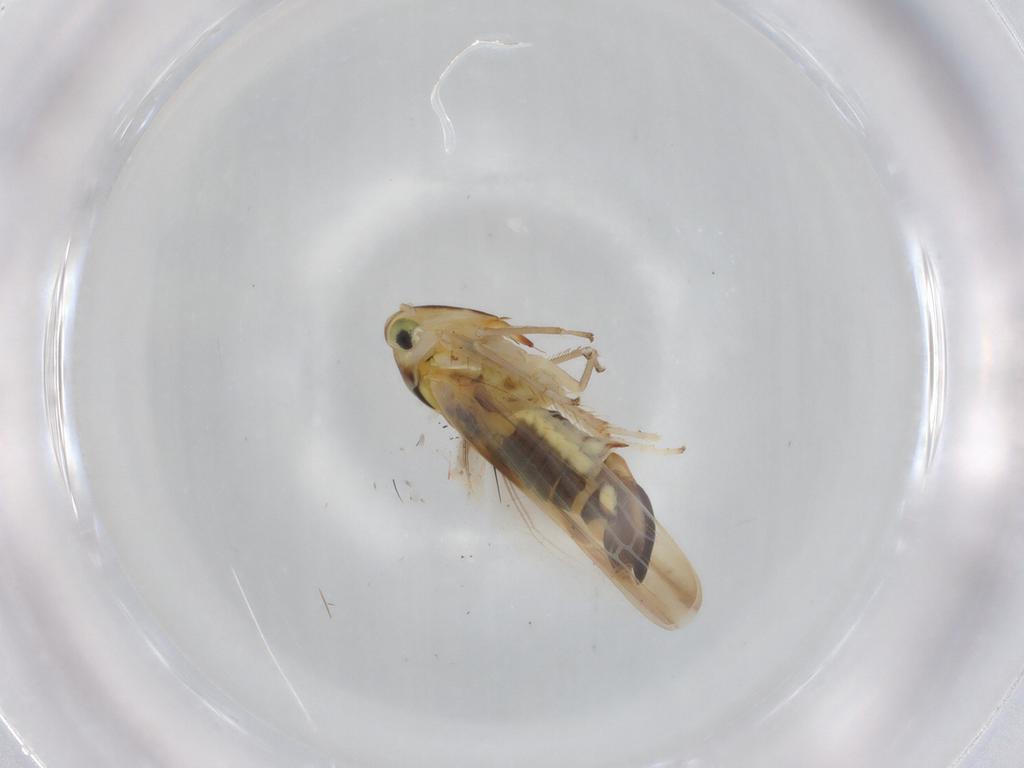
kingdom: Animalia
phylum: Arthropoda
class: Insecta
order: Hemiptera
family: Cicadellidae
